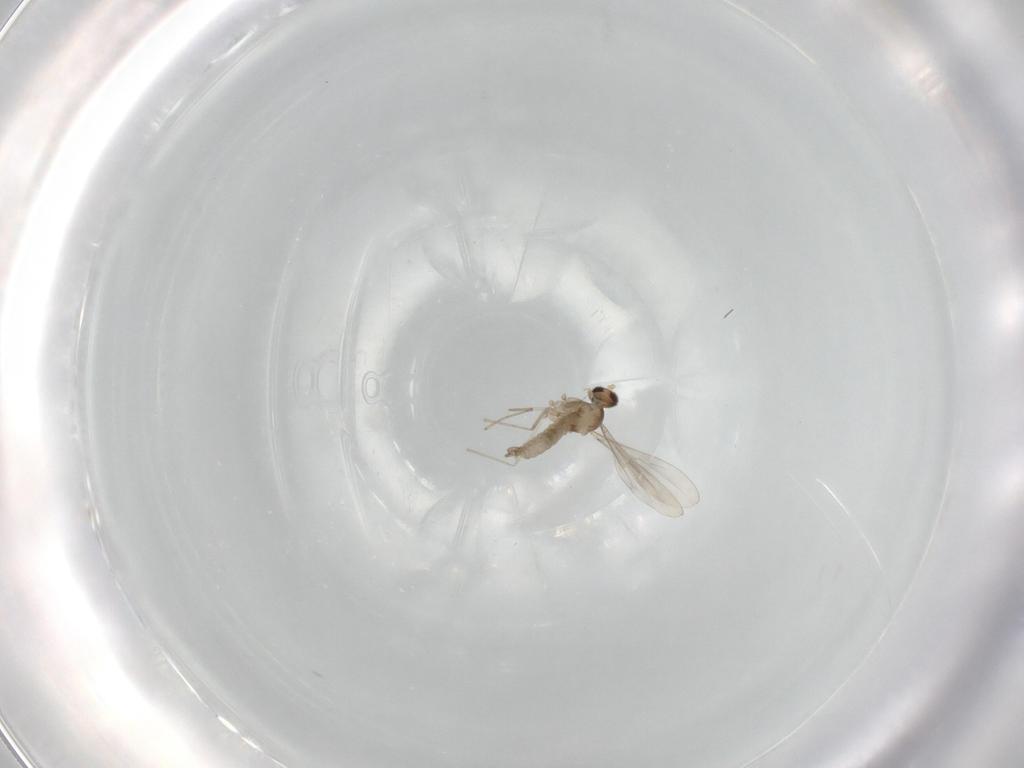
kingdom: Animalia
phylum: Arthropoda
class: Insecta
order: Diptera
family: Cecidomyiidae
